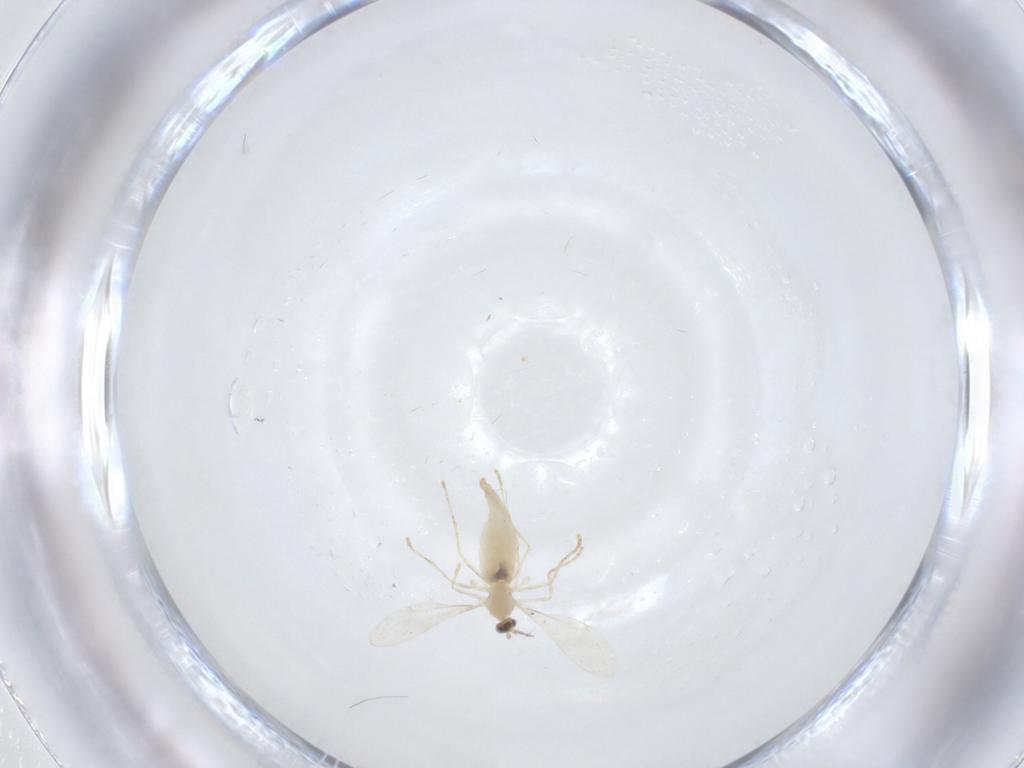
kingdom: Animalia
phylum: Arthropoda
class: Insecta
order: Diptera
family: Cecidomyiidae
